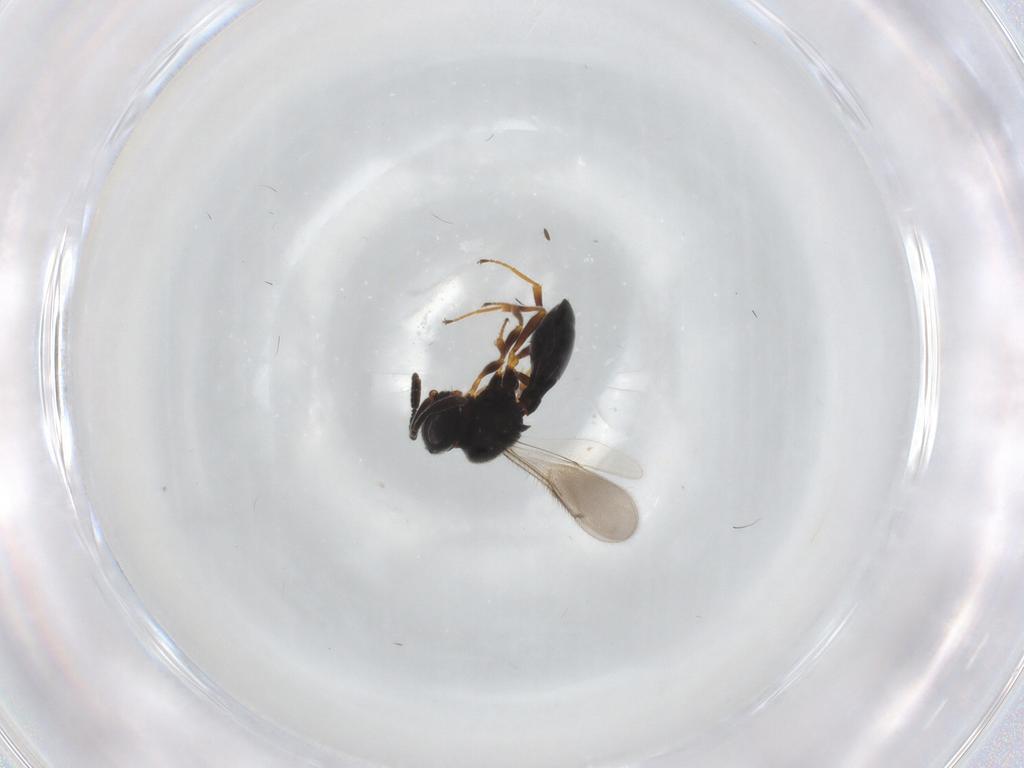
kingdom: Animalia
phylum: Arthropoda
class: Insecta
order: Hymenoptera
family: Scelionidae
